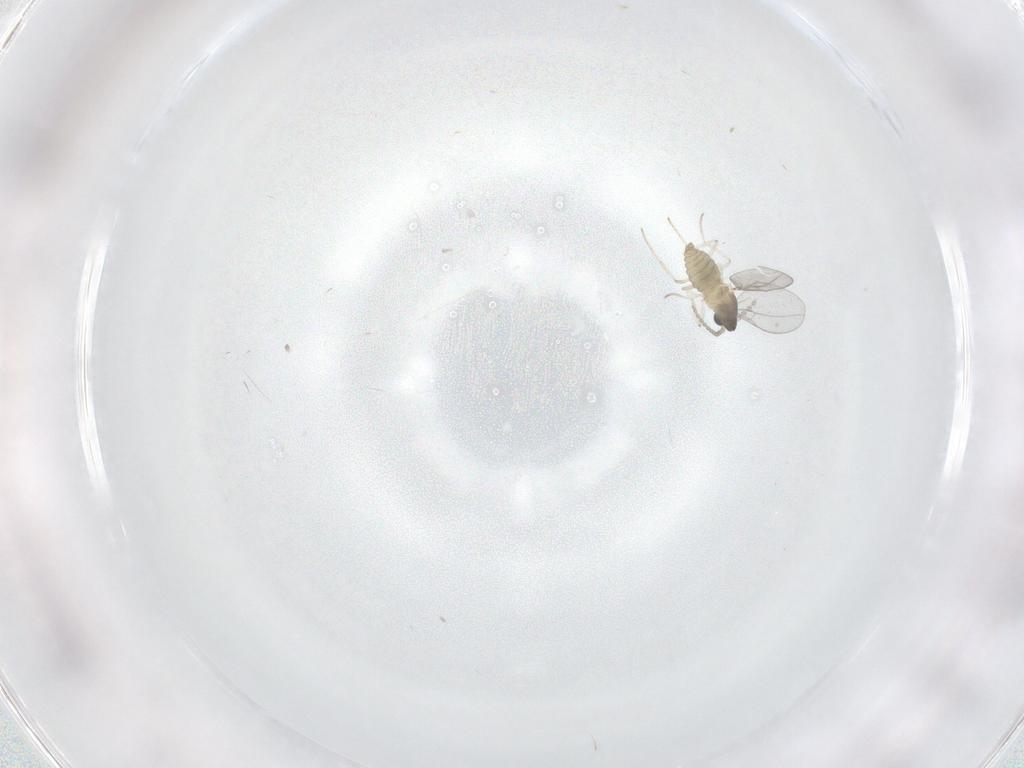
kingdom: Animalia
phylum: Arthropoda
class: Insecta
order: Diptera
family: Cecidomyiidae
